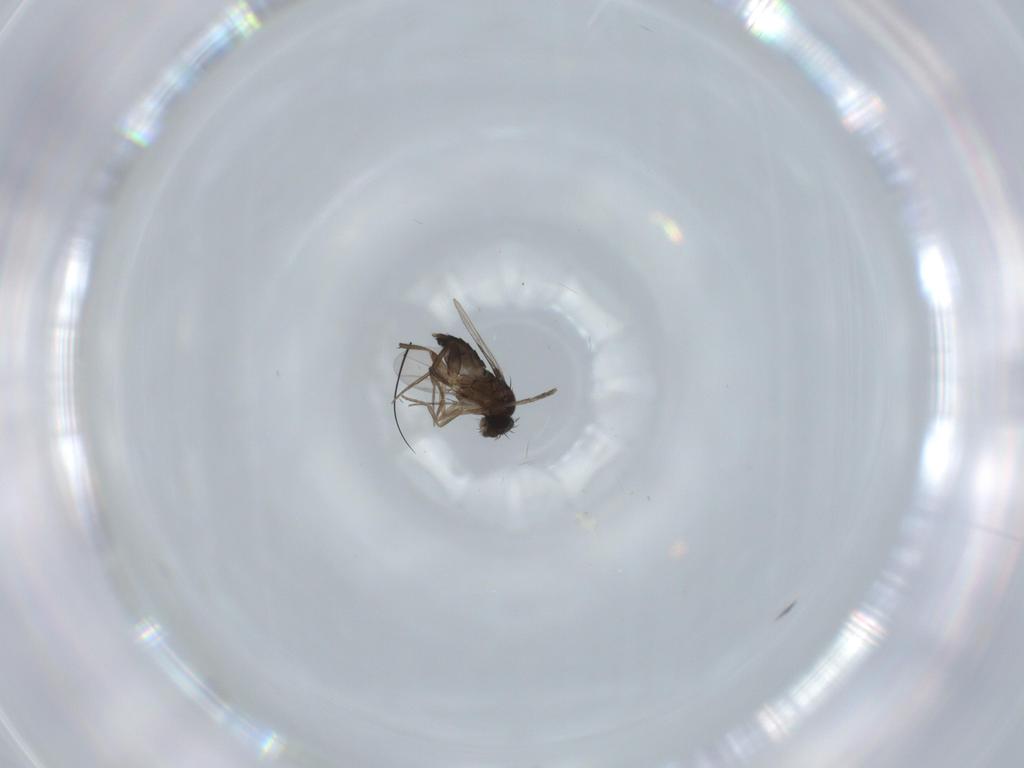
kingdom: Animalia
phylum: Arthropoda
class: Insecta
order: Diptera
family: Phoridae
